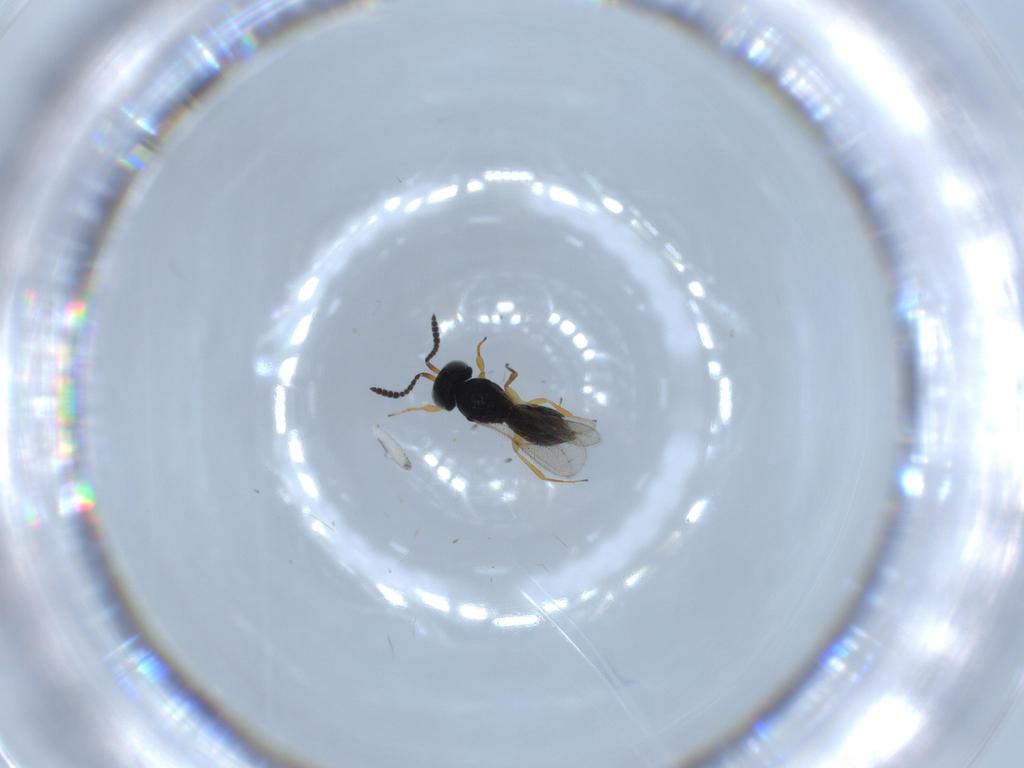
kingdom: Animalia
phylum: Arthropoda
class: Insecta
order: Hymenoptera
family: Scelionidae
